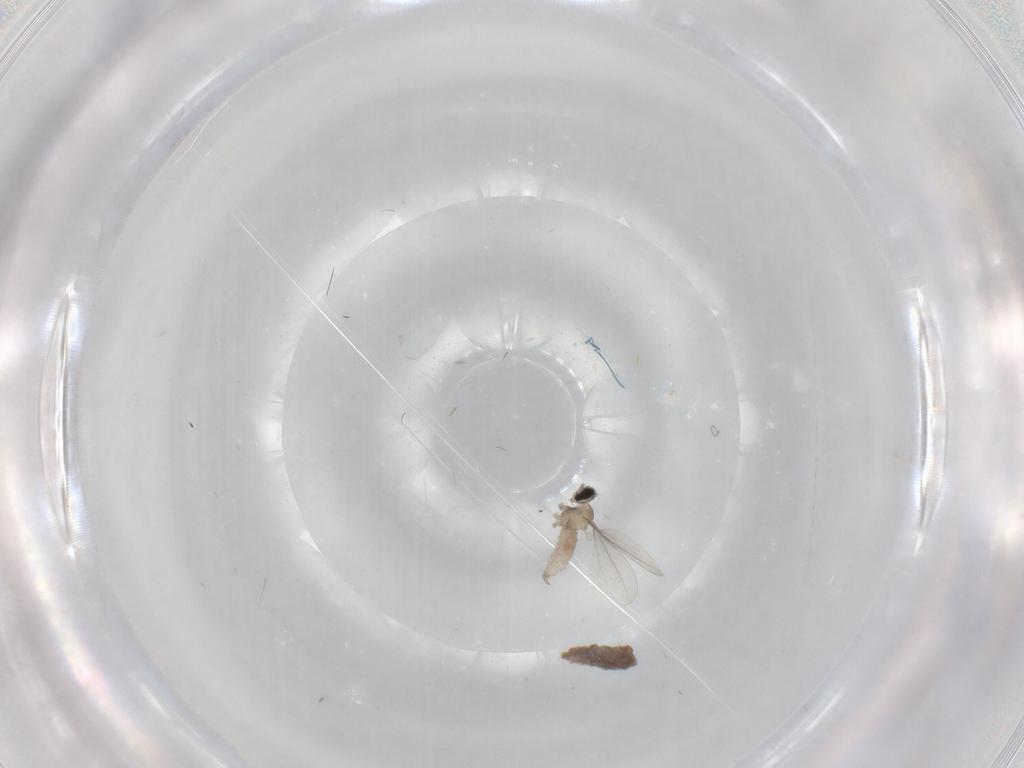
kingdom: Animalia
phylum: Arthropoda
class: Insecta
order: Diptera
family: Cecidomyiidae
